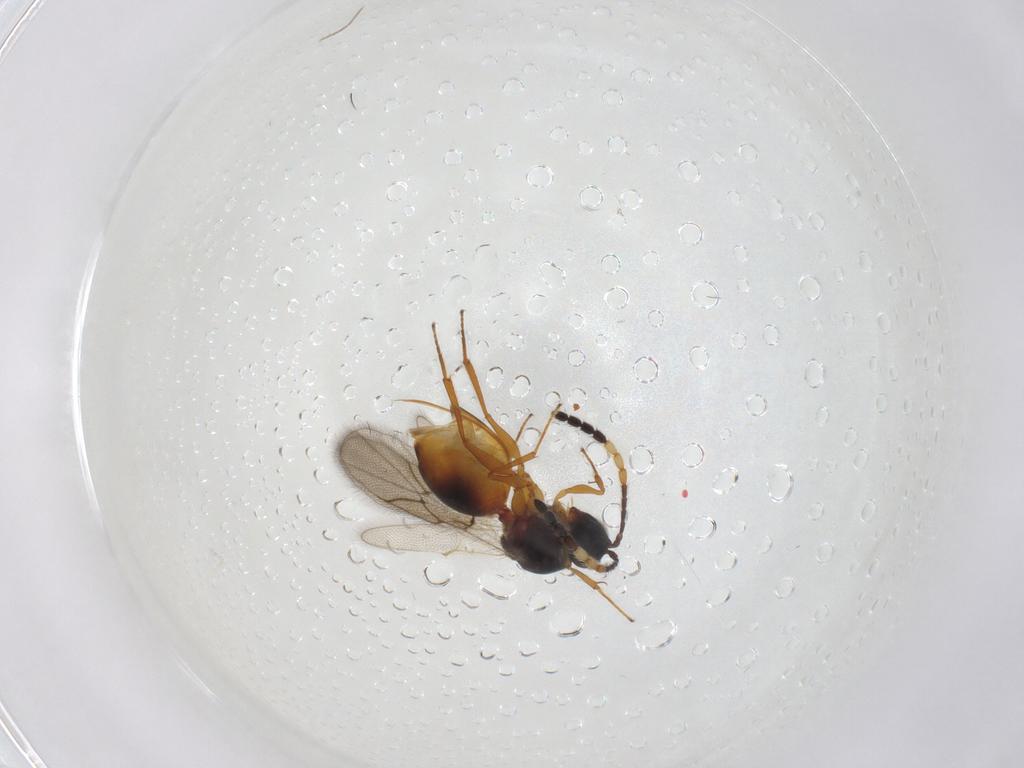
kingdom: Animalia
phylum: Arthropoda
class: Insecta
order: Hymenoptera
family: Figitidae
